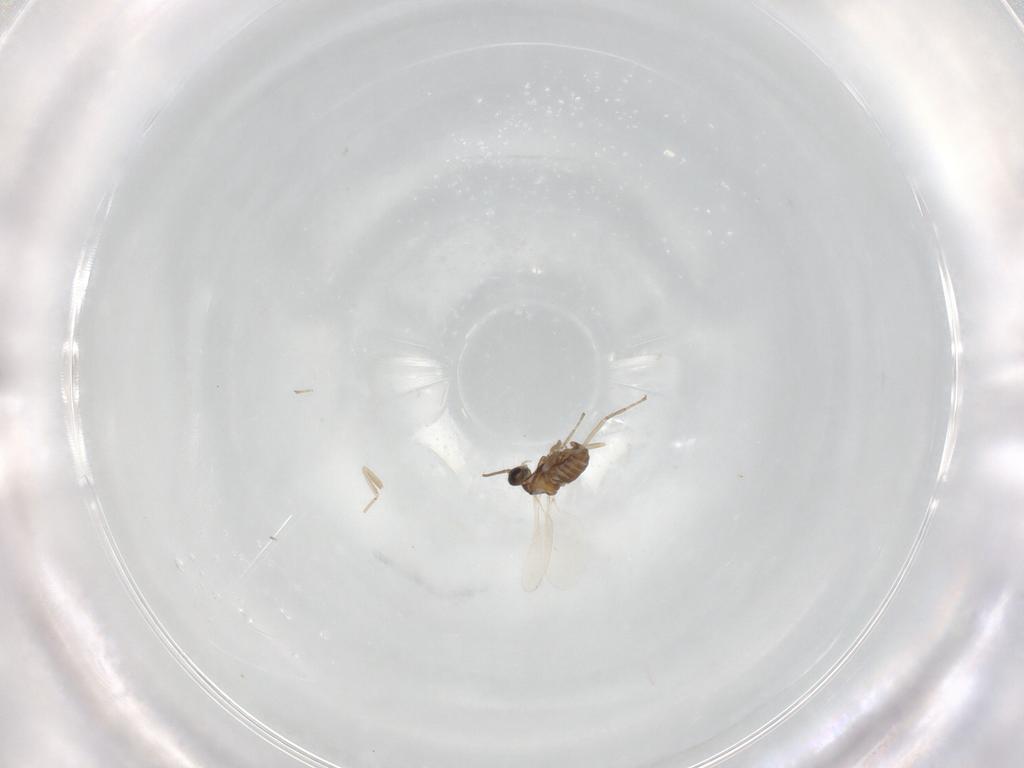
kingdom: Animalia
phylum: Arthropoda
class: Insecta
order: Diptera
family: Cecidomyiidae
